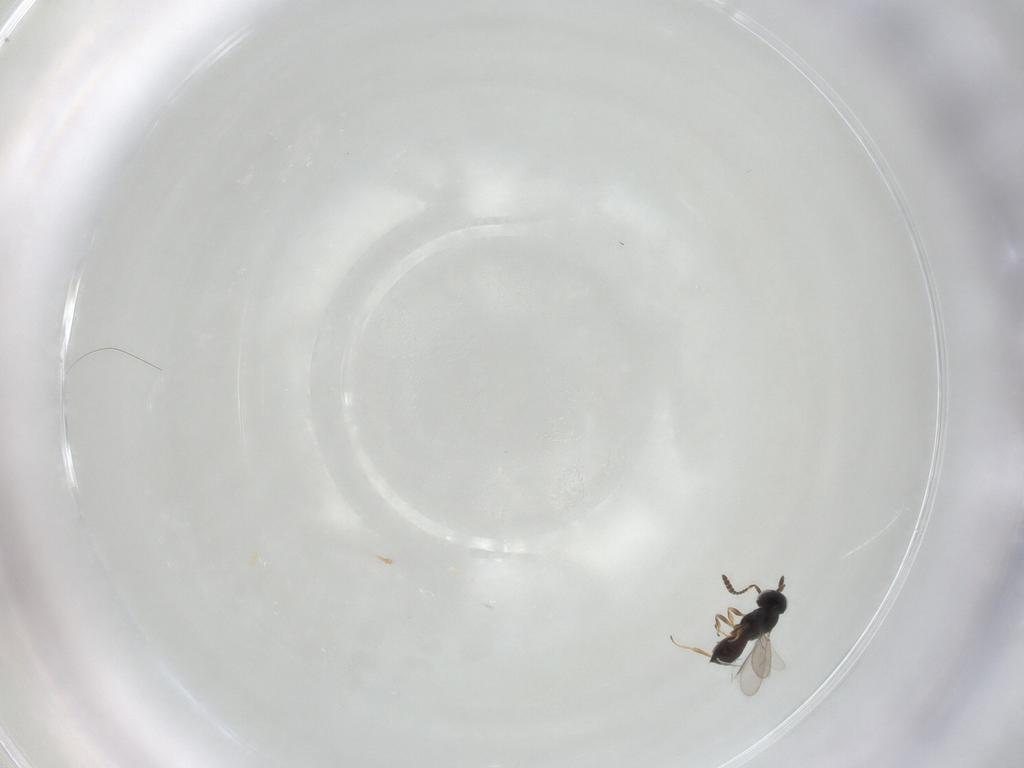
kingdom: Animalia
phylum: Arthropoda
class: Insecta
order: Hymenoptera
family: Scelionidae
